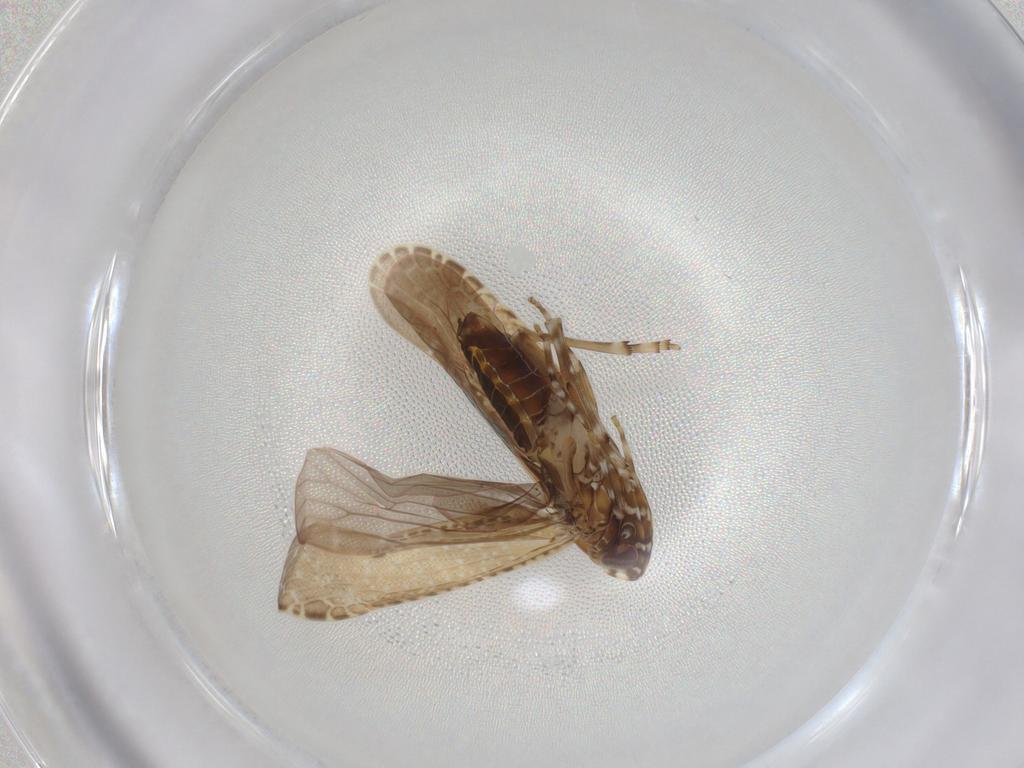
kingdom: Animalia
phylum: Arthropoda
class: Insecta
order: Hemiptera
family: Achilidae
